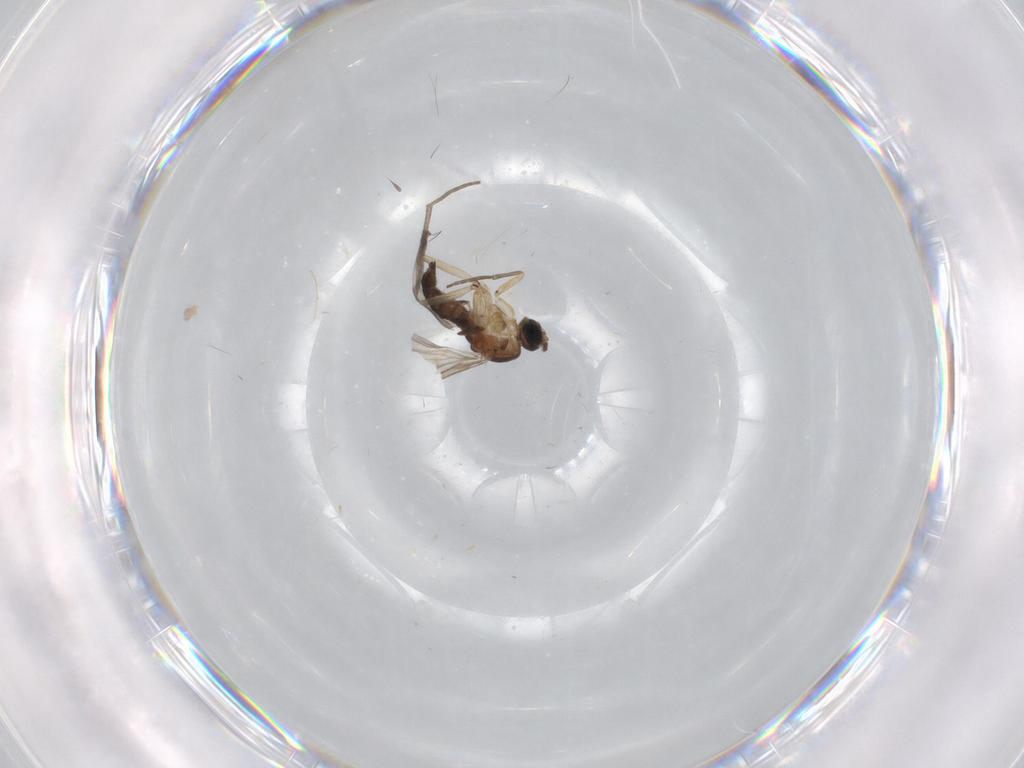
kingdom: Animalia
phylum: Arthropoda
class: Insecta
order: Diptera
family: Sciaridae
